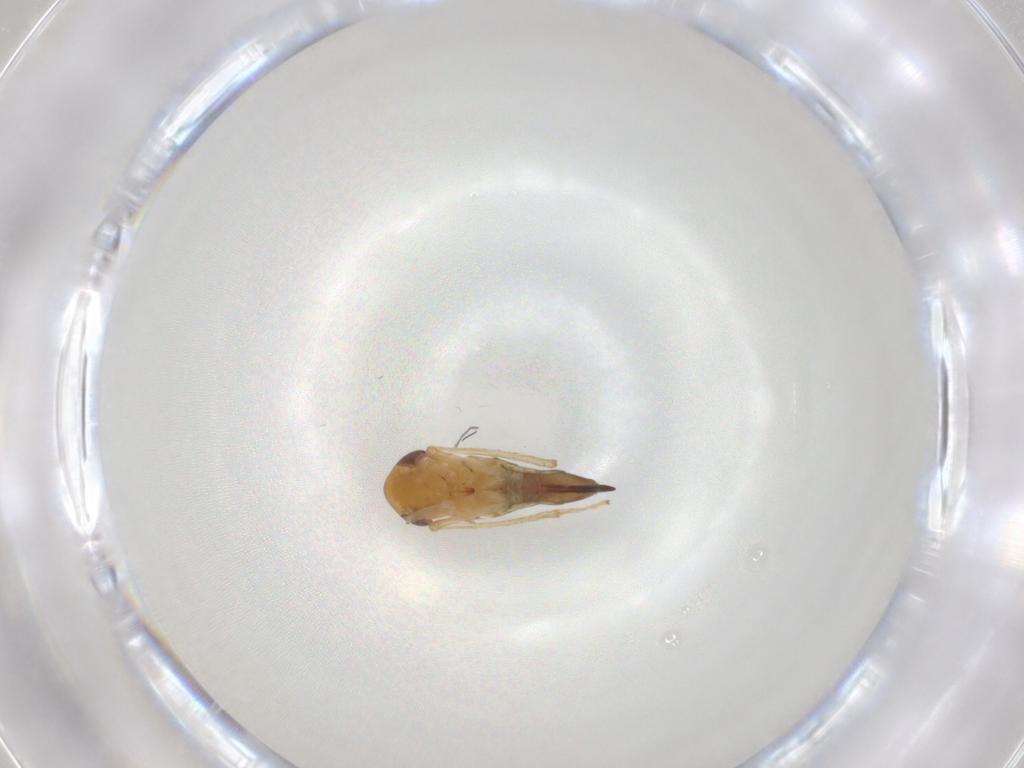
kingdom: Animalia
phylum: Arthropoda
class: Insecta
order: Hemiptera
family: Cicadellidae
